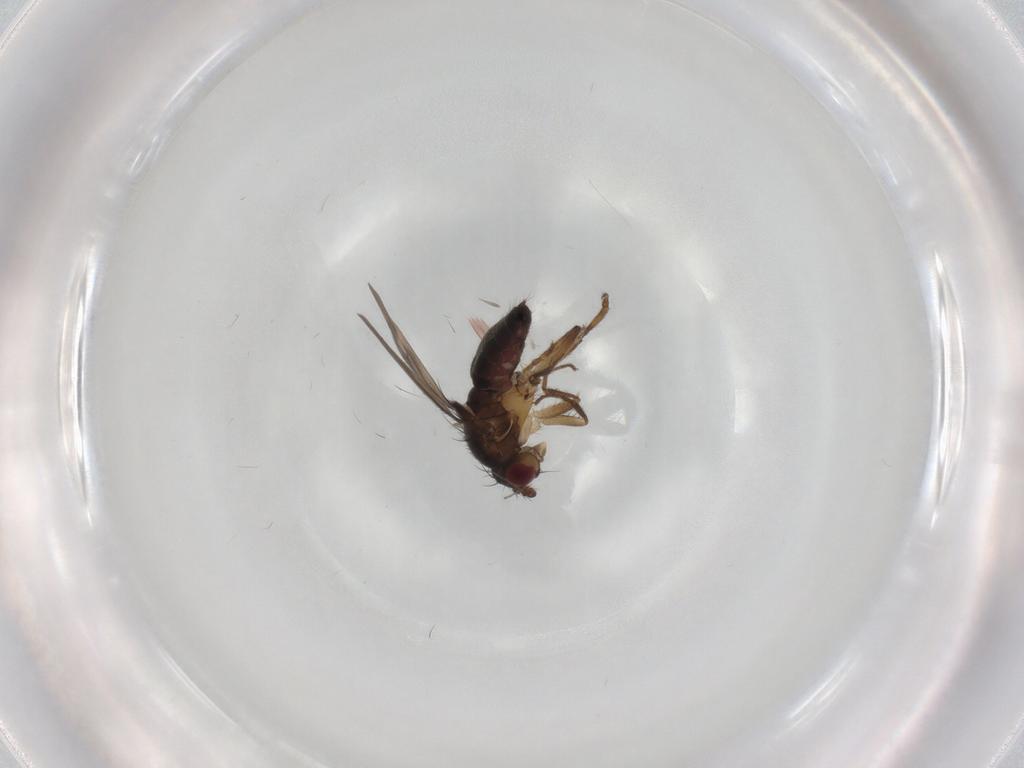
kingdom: Animalia
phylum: Arthropoda
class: Insecta
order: Diptera
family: Sphaeroceridae
